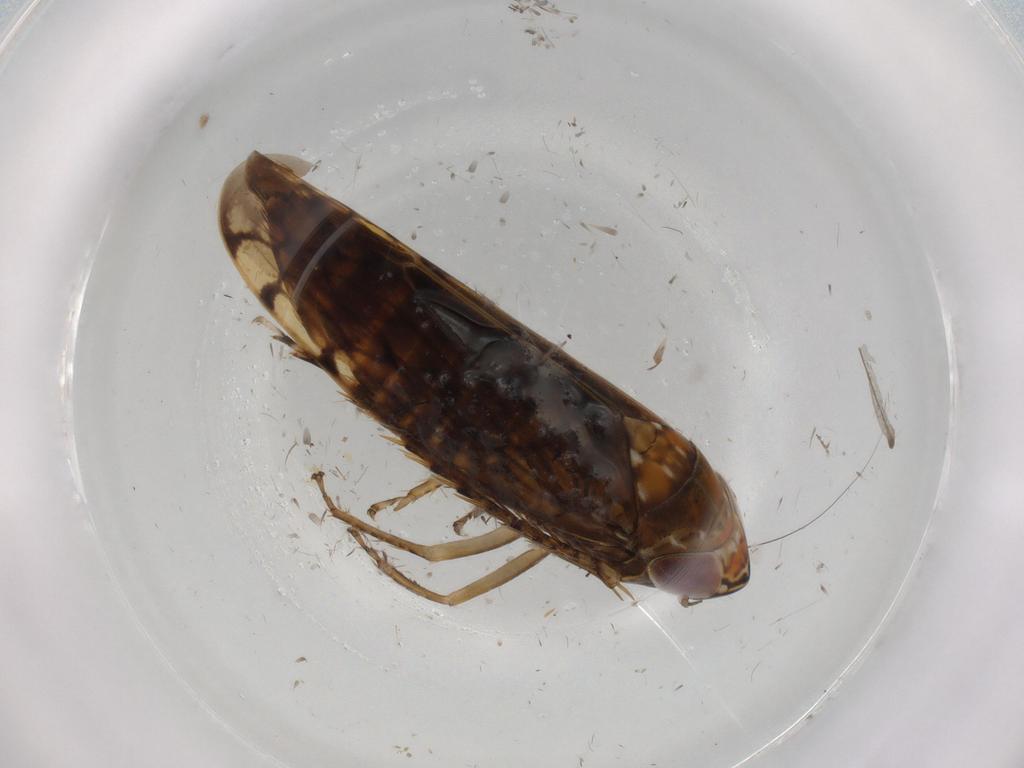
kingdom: Animalia
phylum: Arthropoda
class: Insecta
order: Hemiptera
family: Cicadellidae
